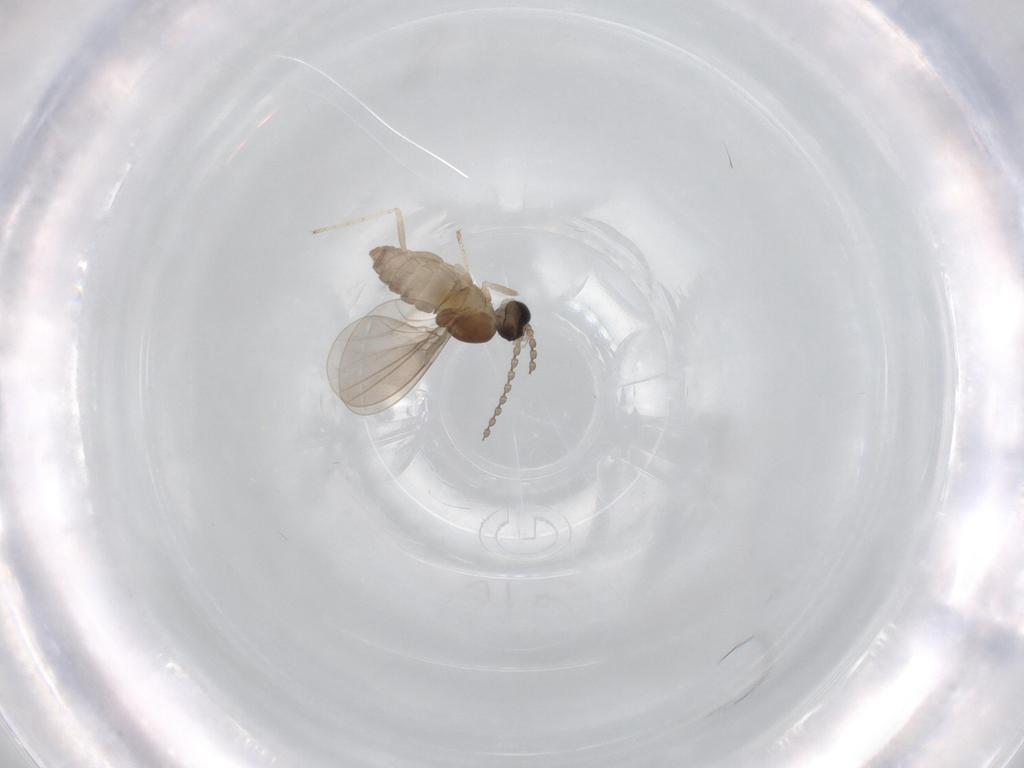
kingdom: Animalia
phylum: Arthropoda
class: Insecta
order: Diptera
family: Cecidomyiidae
